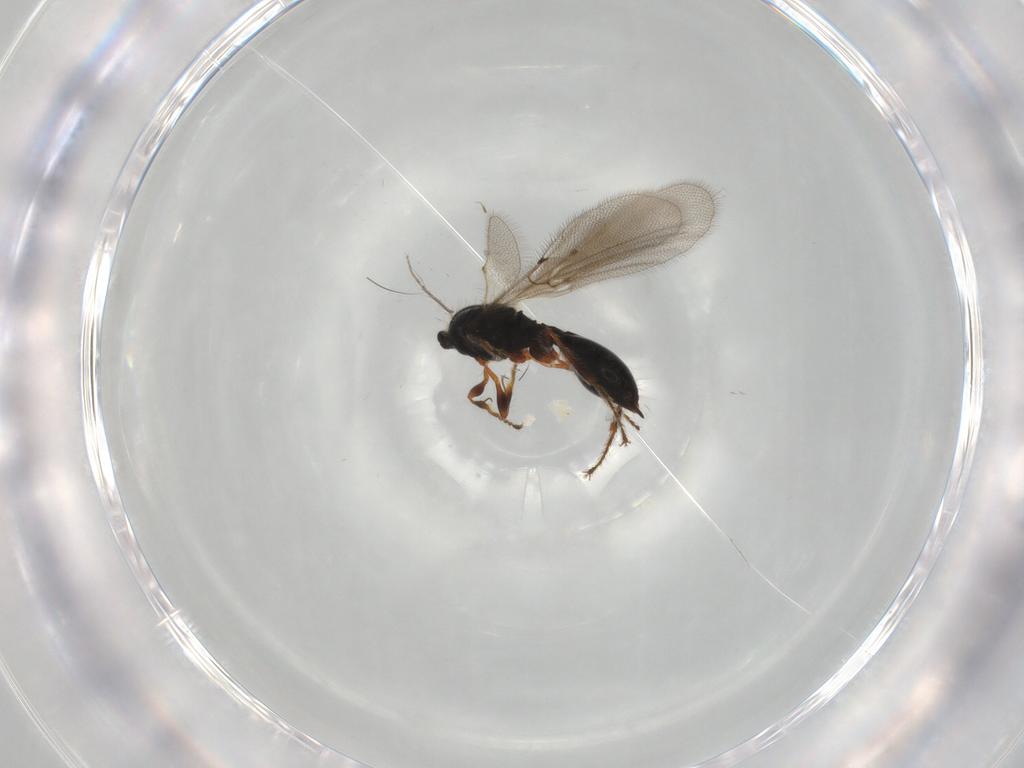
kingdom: Animalia
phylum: Arthropoda
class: Insecta
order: Hymenoptera
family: Diapriidae
